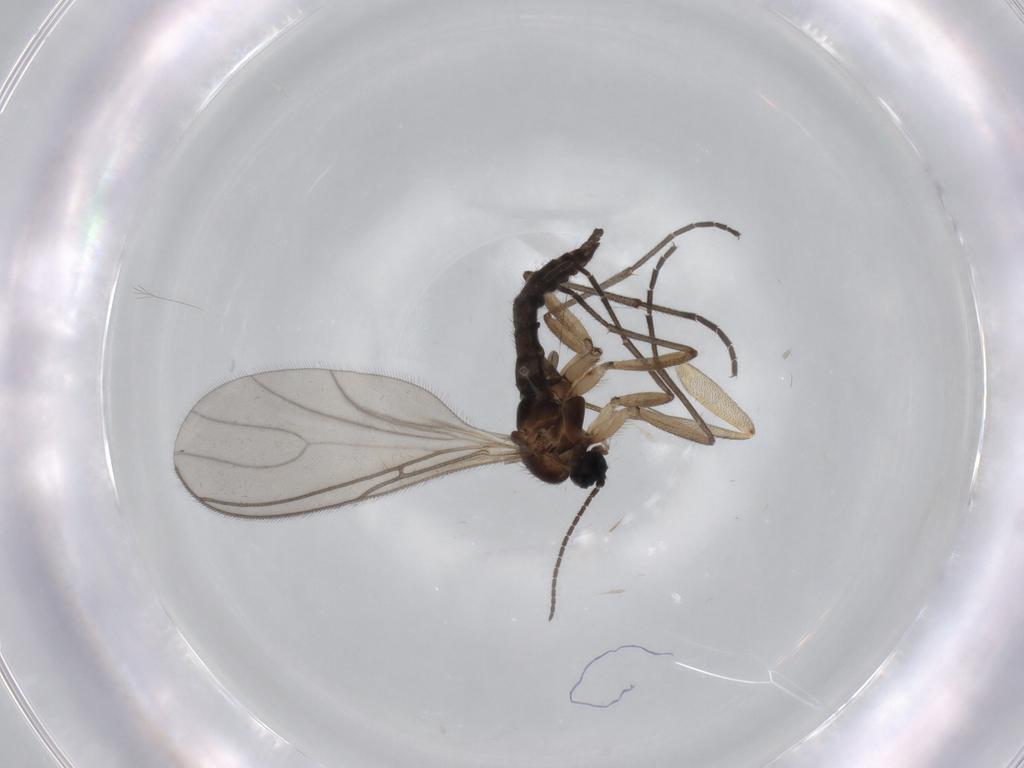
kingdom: Animalia
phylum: Arthropoda
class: Insecta
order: Diptera
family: Sciaridae
